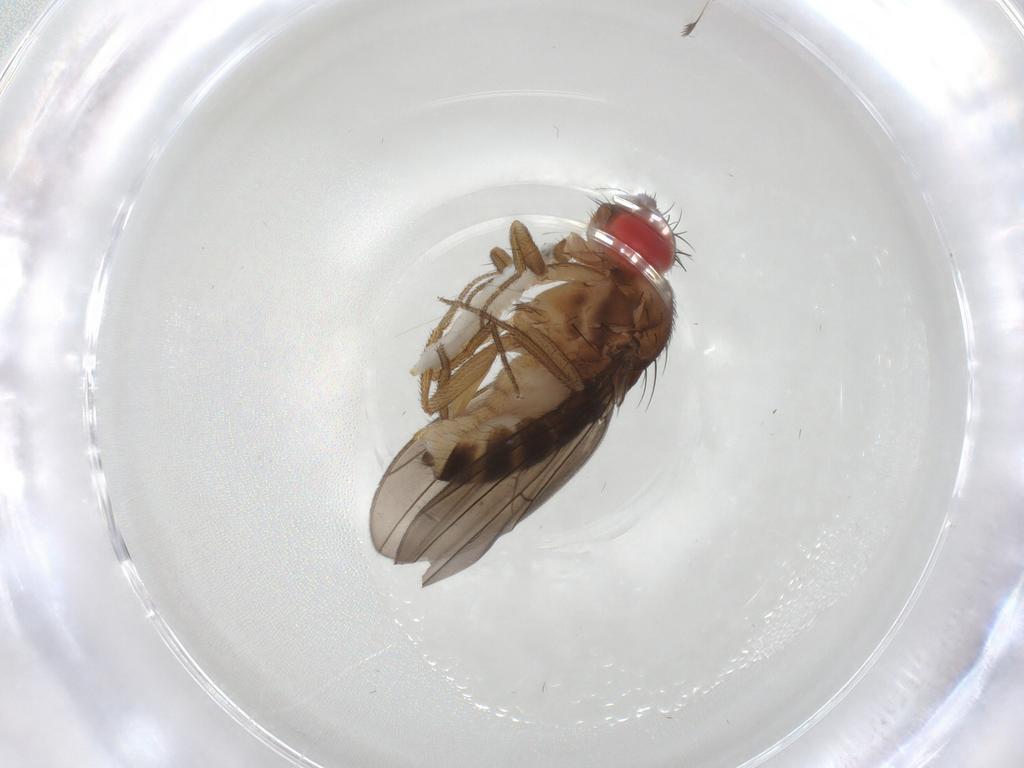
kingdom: Animalia
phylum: Arthropoda
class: Insecta
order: Diptera
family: Drosophilidae
